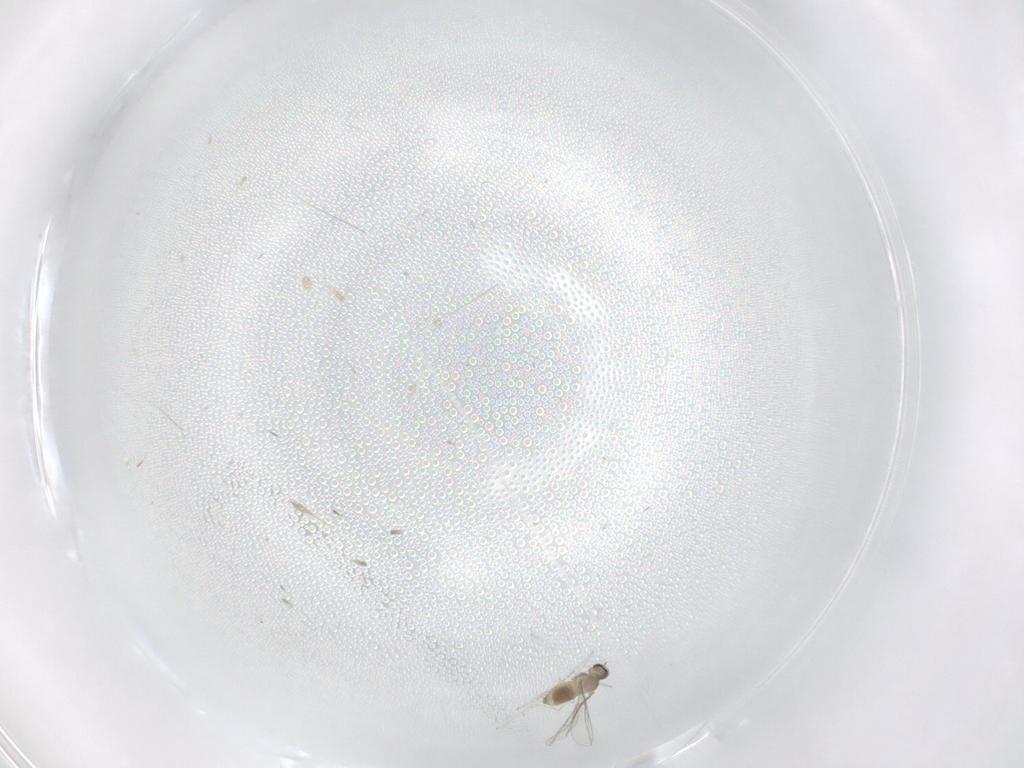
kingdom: Animalia
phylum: Arthropoda
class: Insecta
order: Diptera
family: Cecidomyiidae
